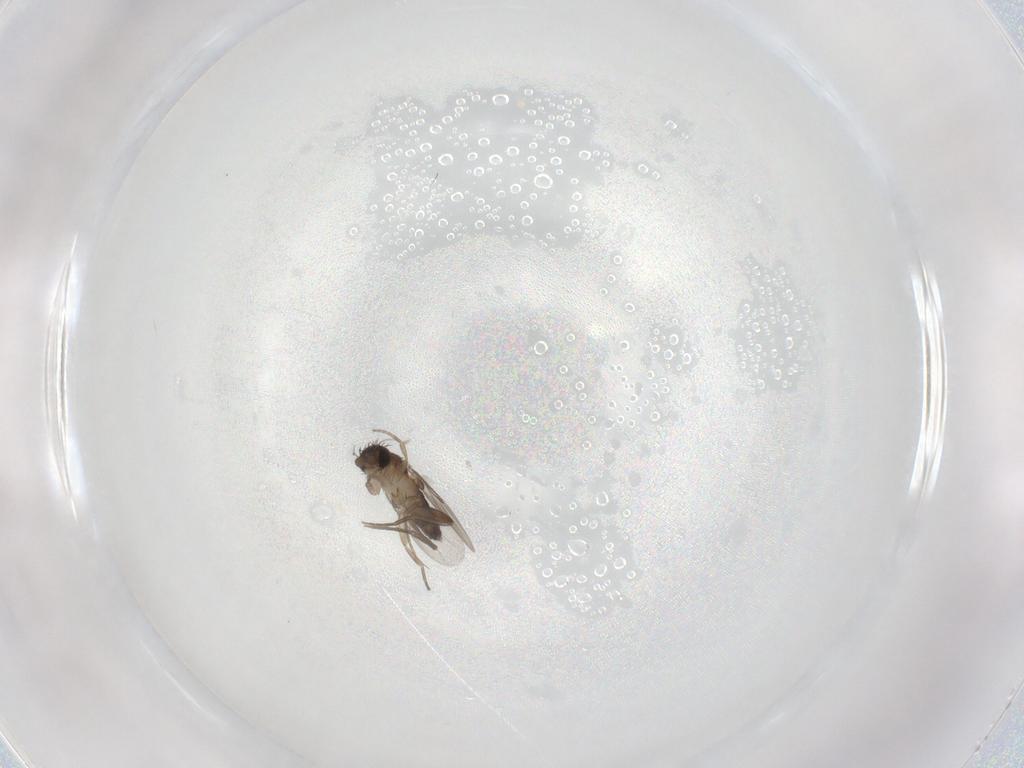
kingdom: Animalia
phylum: Arthropoda
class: Insecta
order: Diptera
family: Phoridae
